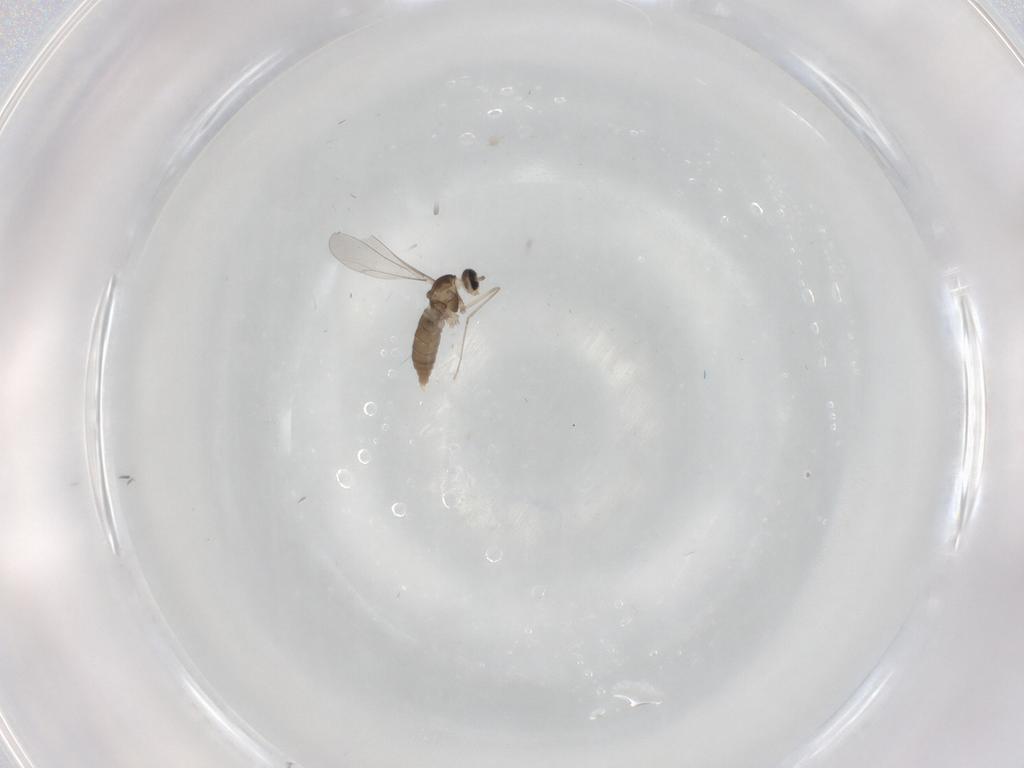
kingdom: Animalia
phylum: Arthropoda
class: Insecta
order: Diptera
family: Cecidomyiidae
